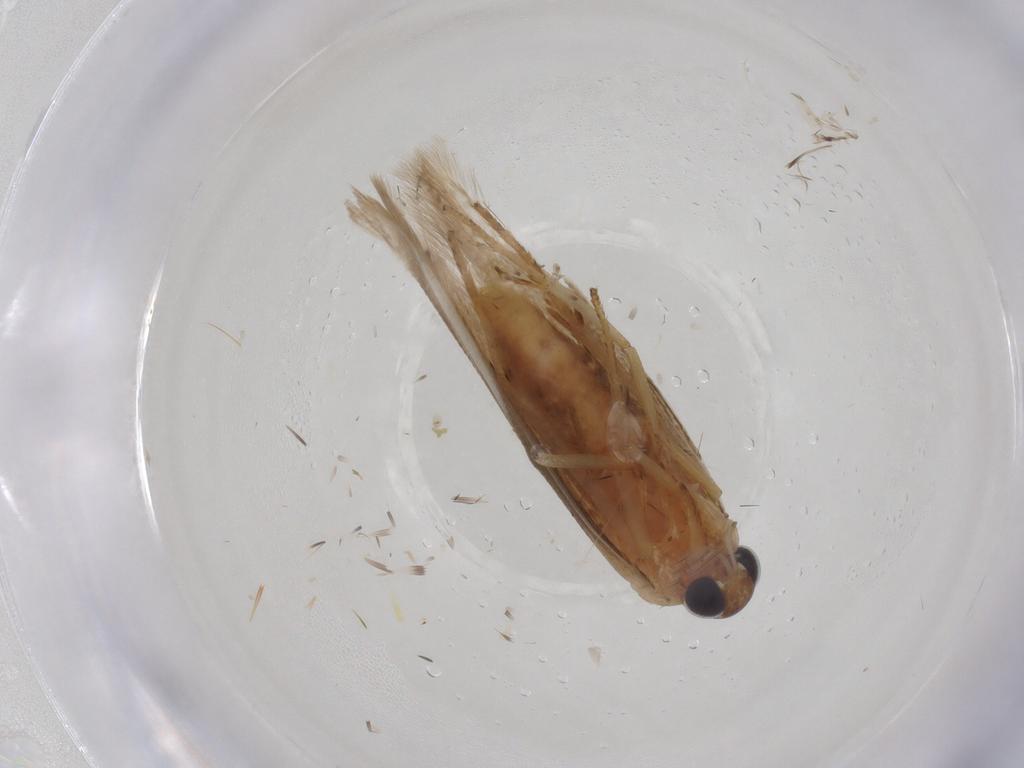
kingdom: Animalia
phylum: Arthropoda
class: Insecta
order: Lepidoptera
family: Blastobasidae
